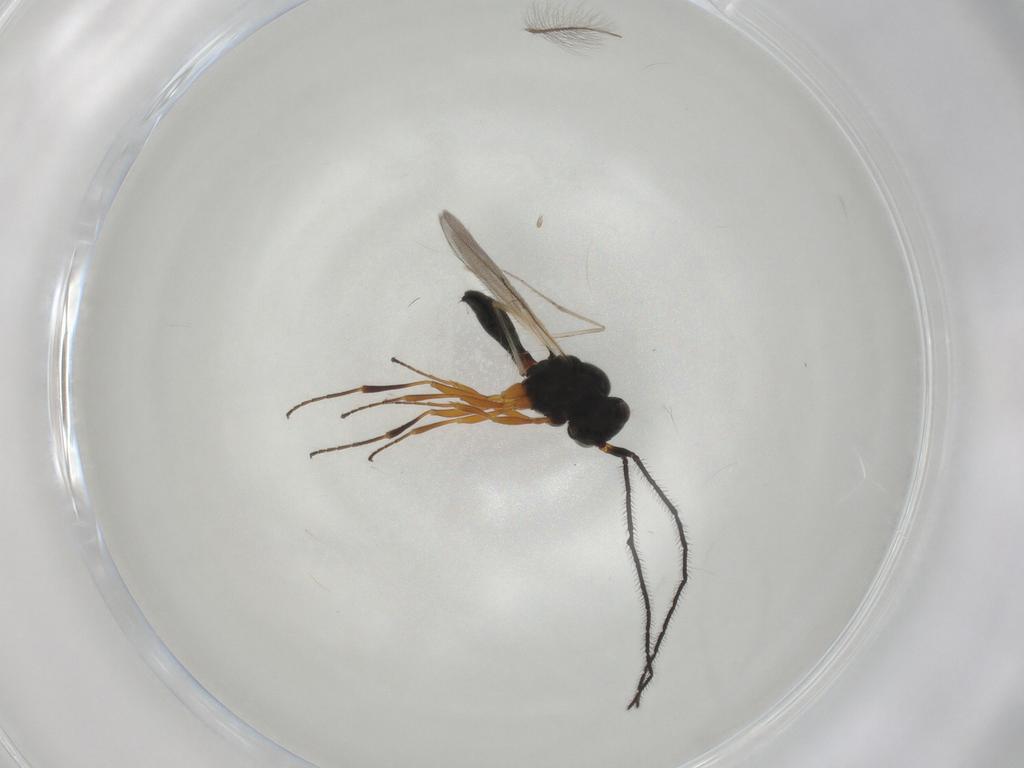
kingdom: Animalia
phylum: Arthropoda
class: Insecta
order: Hymenoptera
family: Scelionidae
